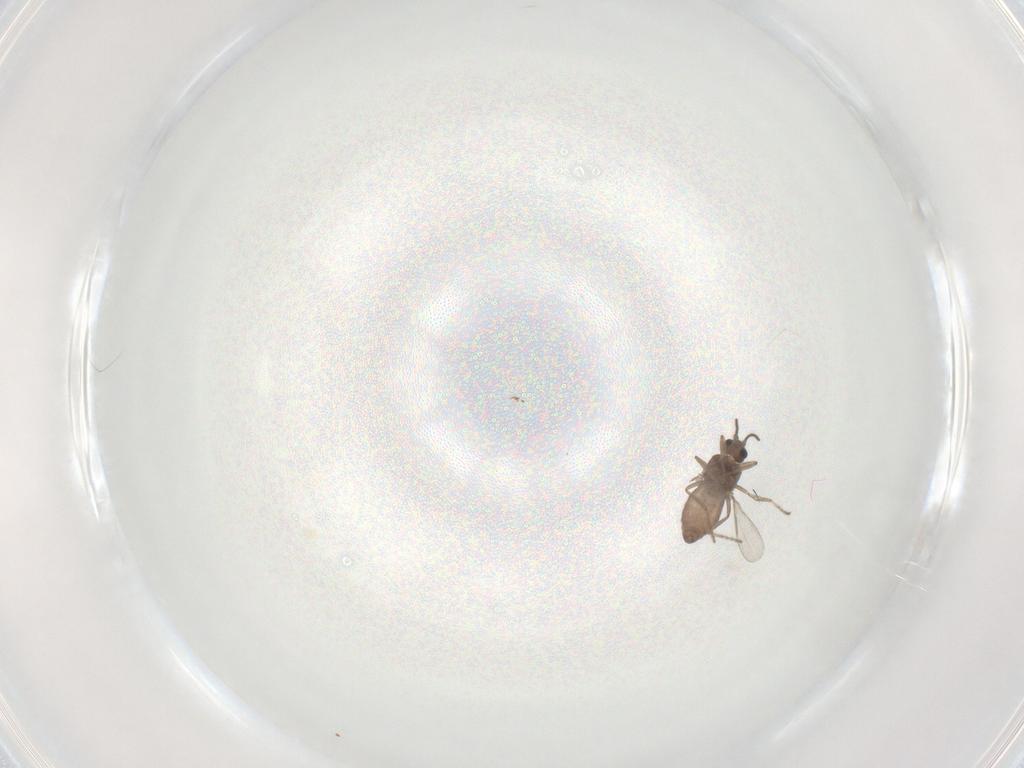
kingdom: Animalia
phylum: Arthropoda
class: Insecta
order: Diptera
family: Ceratopogonidae
